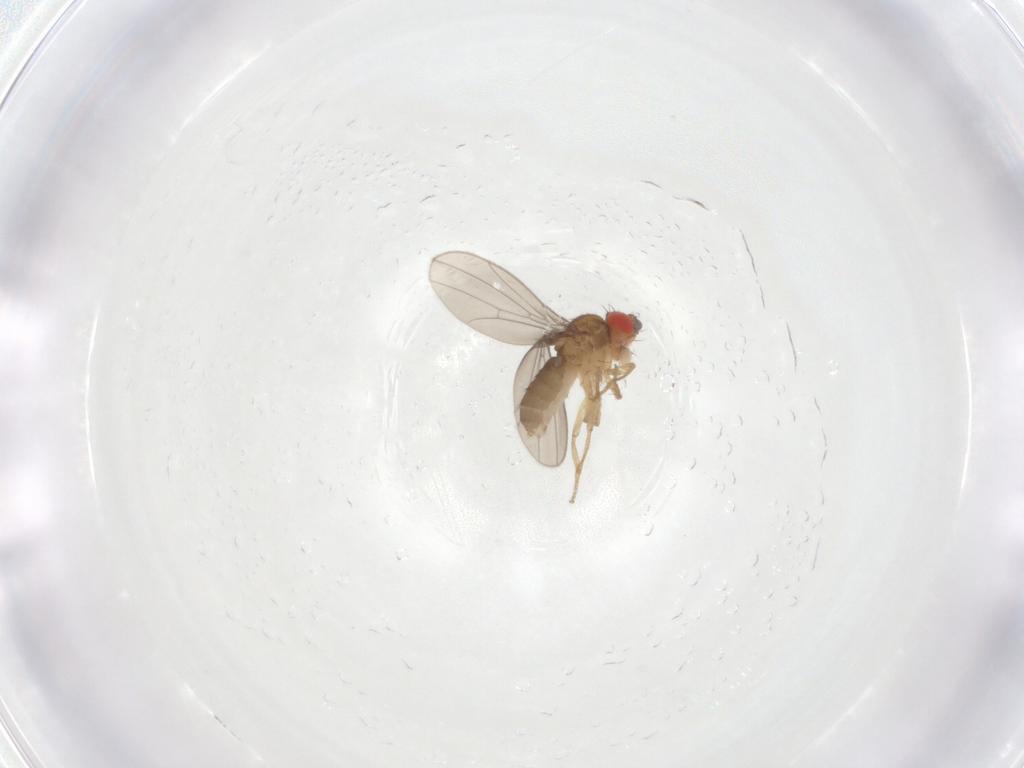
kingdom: Animalia
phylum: Arthropoda
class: Insecta
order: Diptera
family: Drosophilidae
